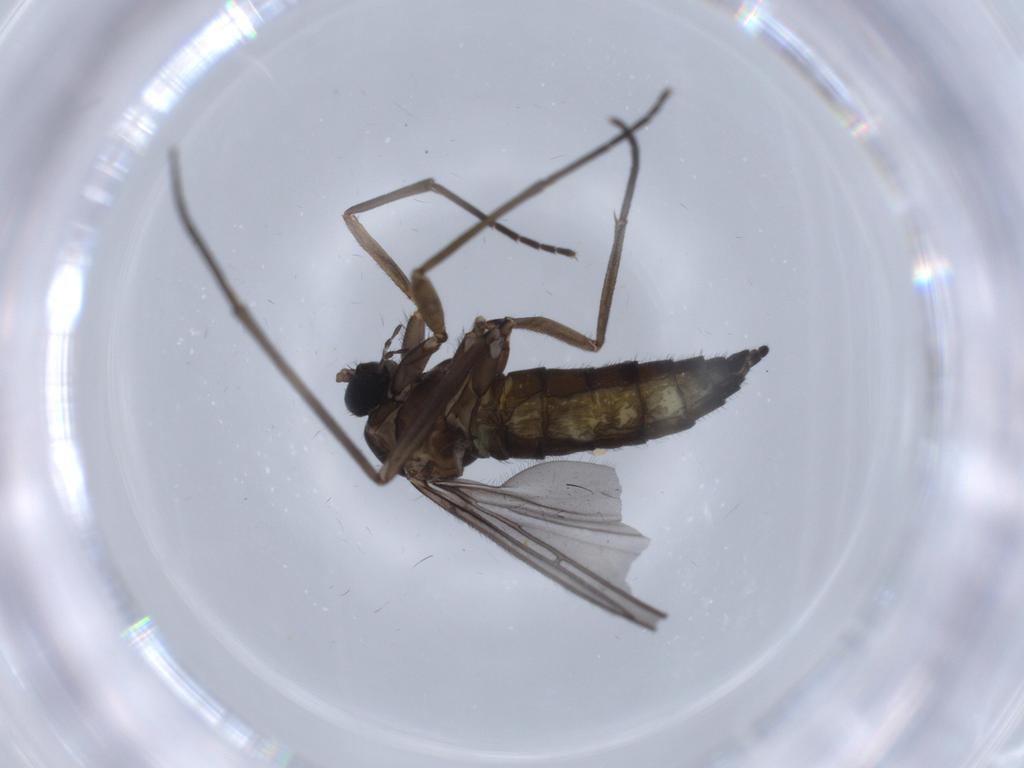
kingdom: Animalia
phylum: Arthropoda
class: Insecta
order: Diptera
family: Sciaridae
